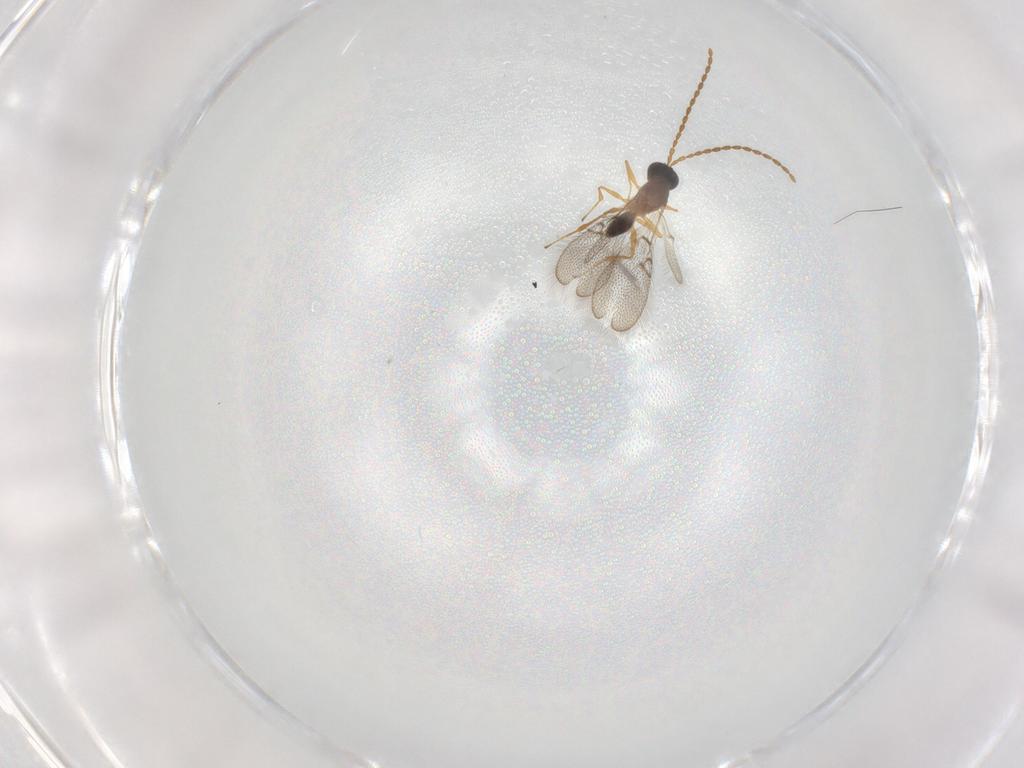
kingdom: Animalia
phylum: Arthropoda
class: Insecta
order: Hymenoptera
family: Figitidae
